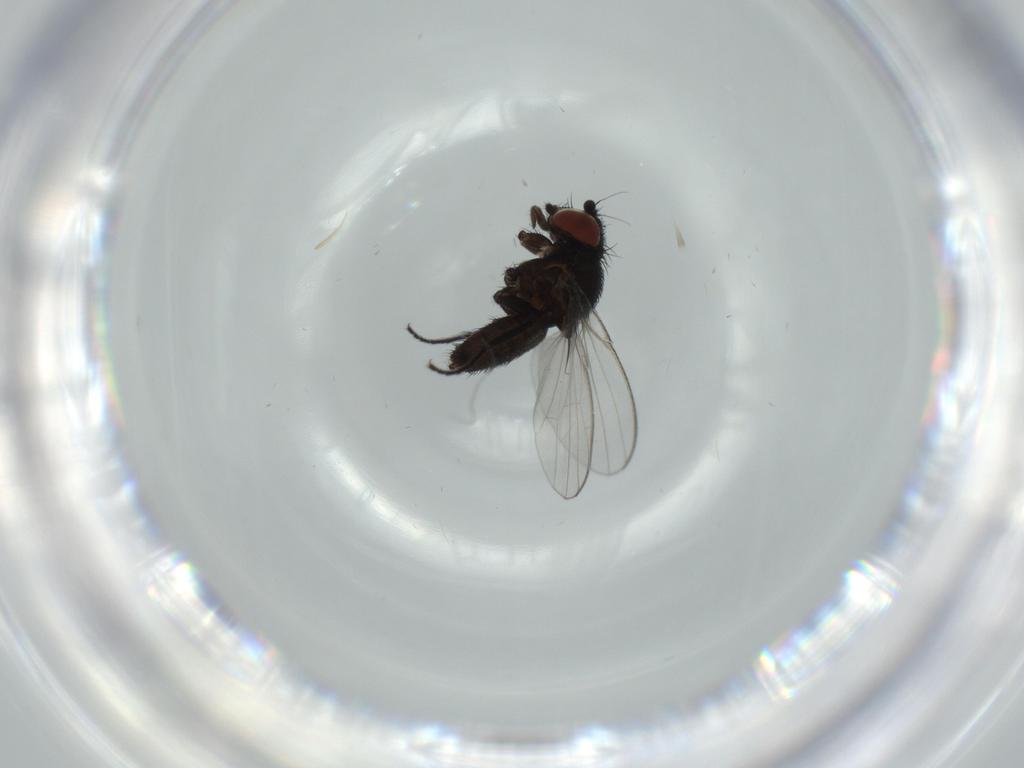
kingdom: Animalia
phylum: Arthropoda
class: Insecta
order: Diptera
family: Milichiidae
